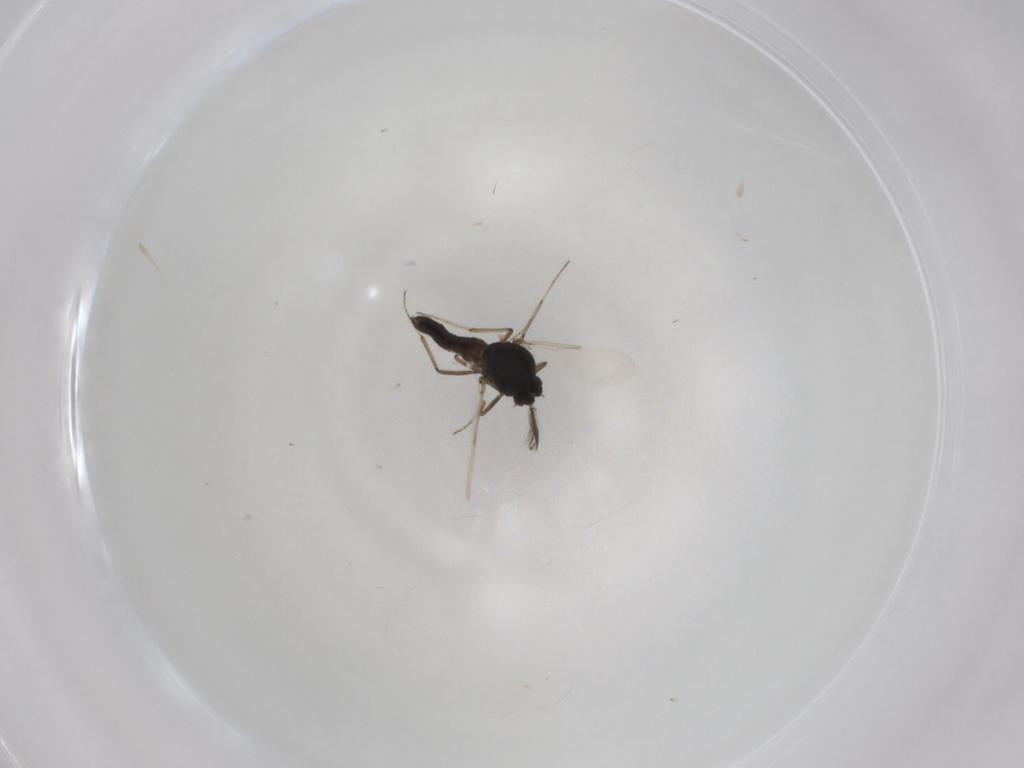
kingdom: Animalia
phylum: Arthropoda
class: Insecta
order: Diptera
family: Ceratopogonidae
